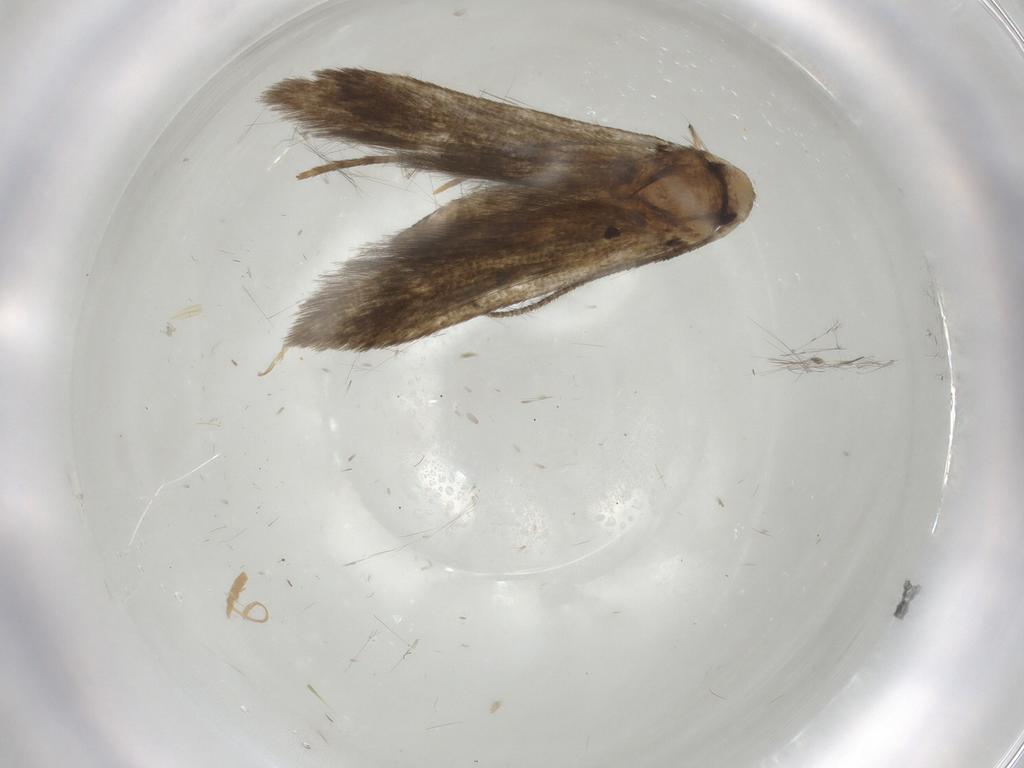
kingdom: Animalia
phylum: Arthropoda
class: Insecta
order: Lepidoptera
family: Stathmopodidae
